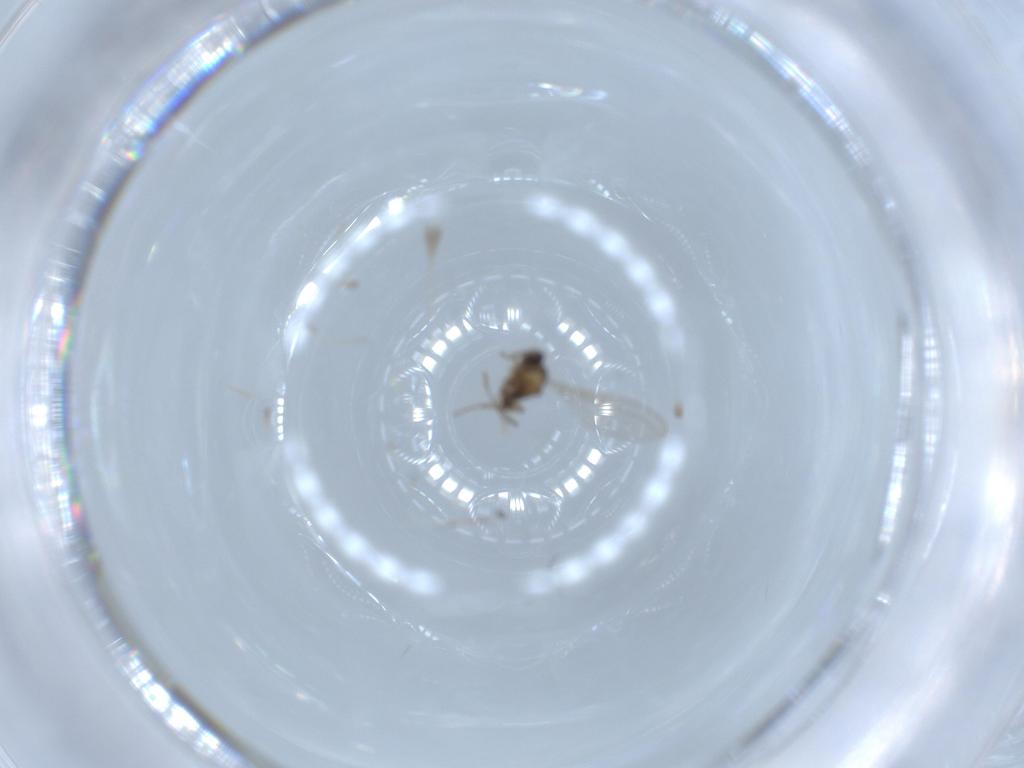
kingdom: Animalia
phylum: Arthropoda
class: Insecta
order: Diptera
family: Cecidomyiidae
